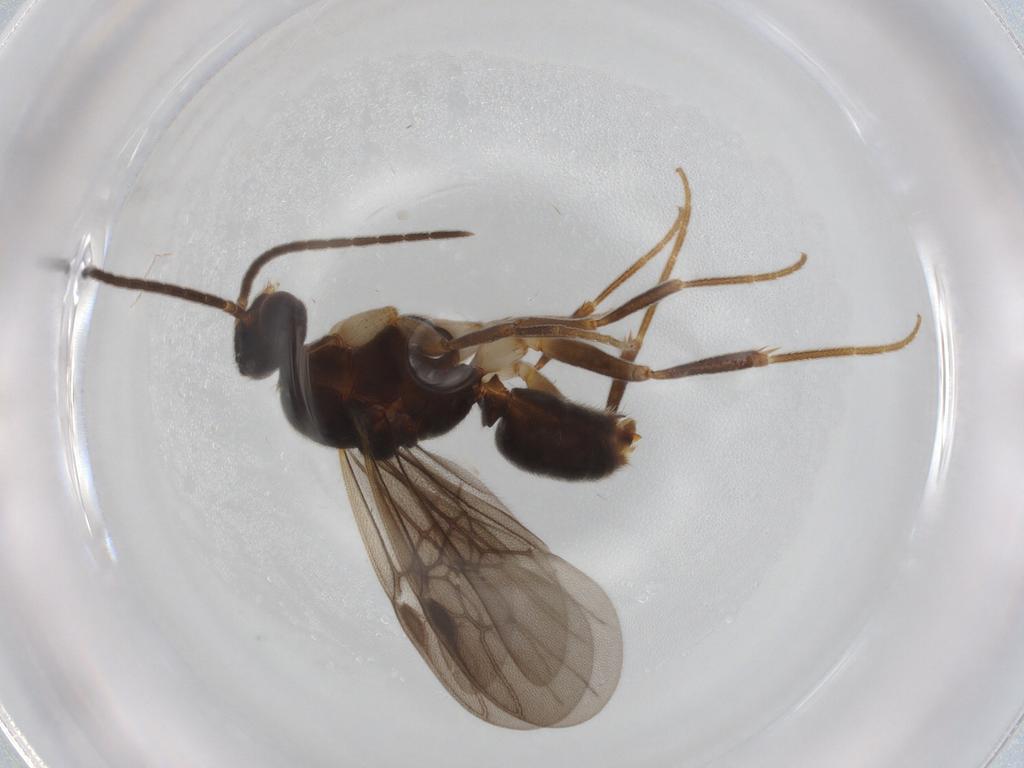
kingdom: Animalia
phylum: Arthropoda
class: Insecta
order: Hymenoptera
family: Formicidae
